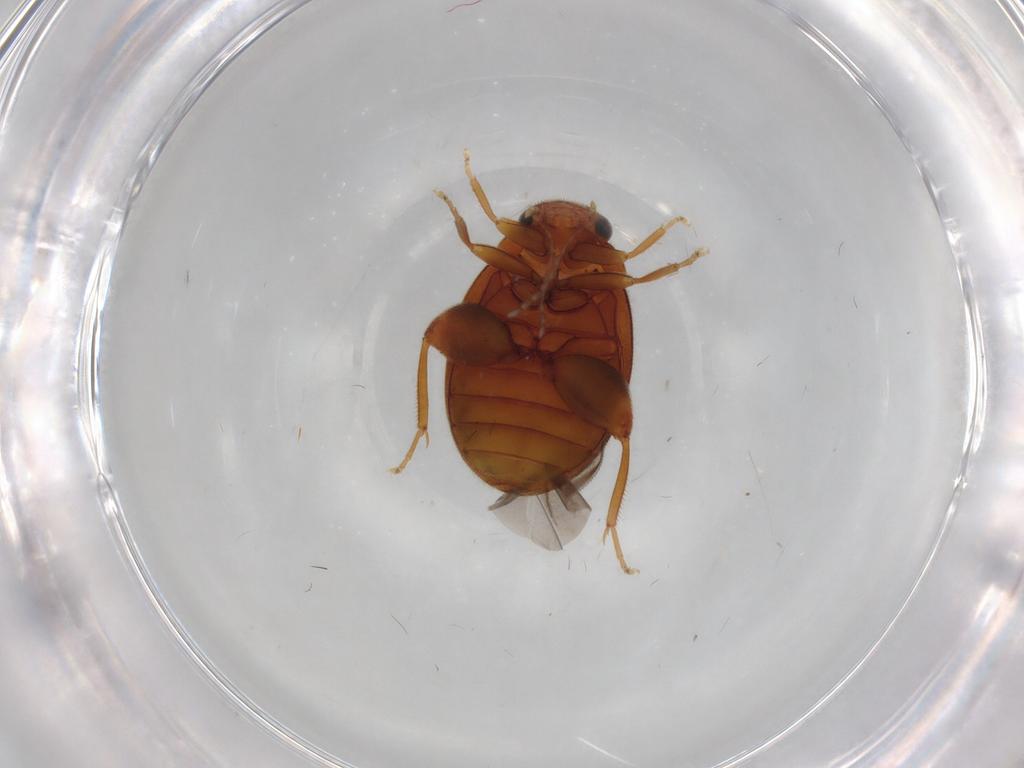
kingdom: Animalia
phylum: Arthropoda
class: Insecta
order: Coleoptera
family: Scirtidae
